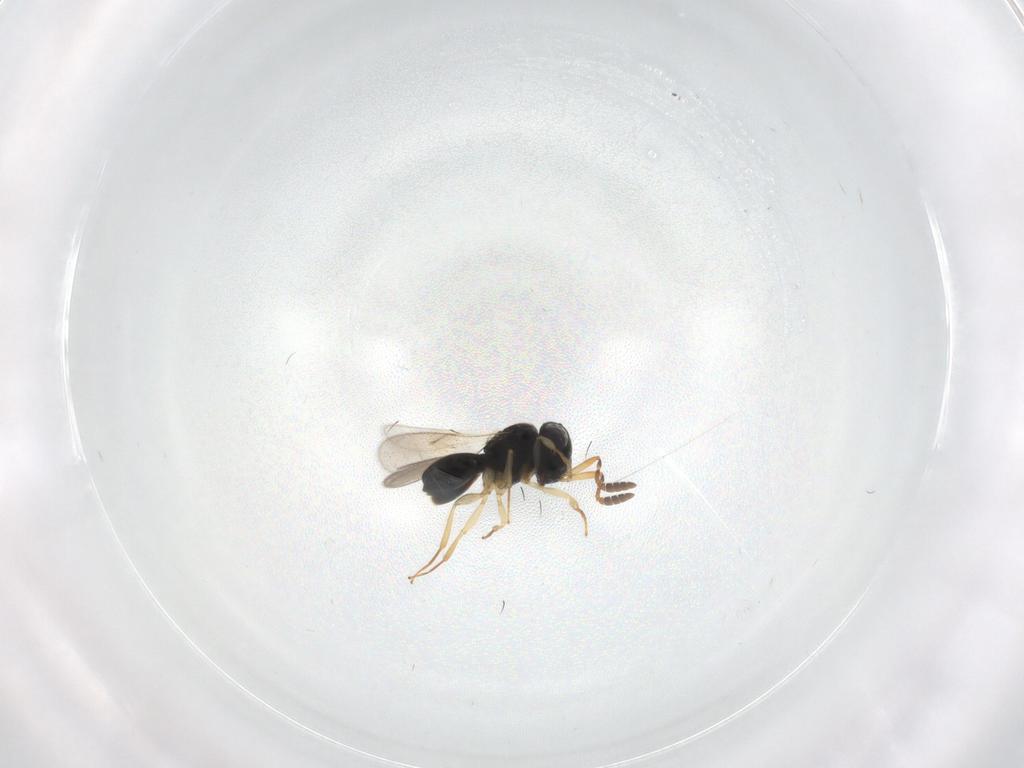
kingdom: Animalia
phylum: Arthropoda
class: Insecta
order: Hymenoptera
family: Scelionidae
